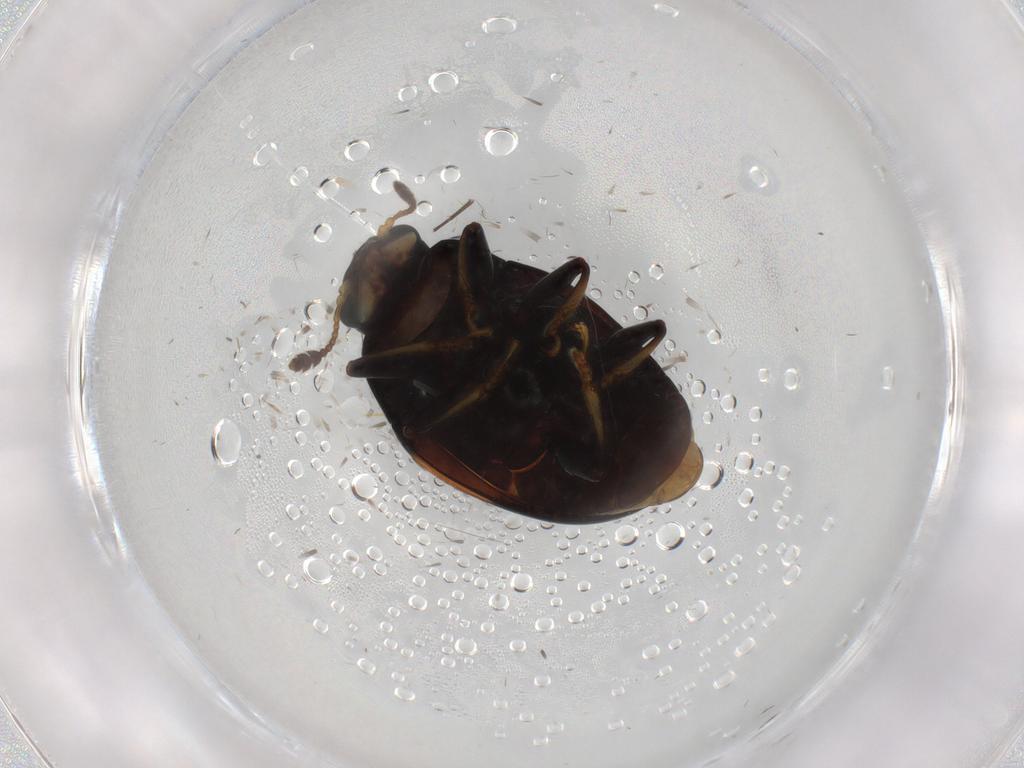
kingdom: Animalia
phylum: Arthropoda
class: Insecta
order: Coleoptera
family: Erotylidae
